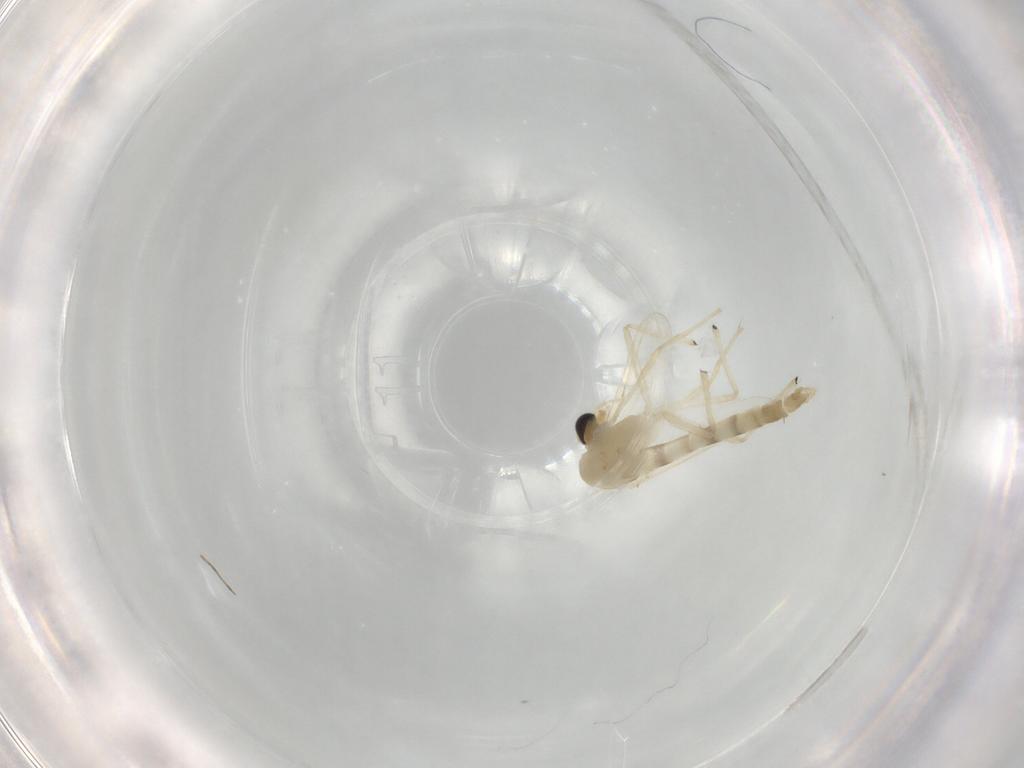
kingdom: Animalia
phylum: Arthropoda
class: Insecta
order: Diptera
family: Chironomidae
